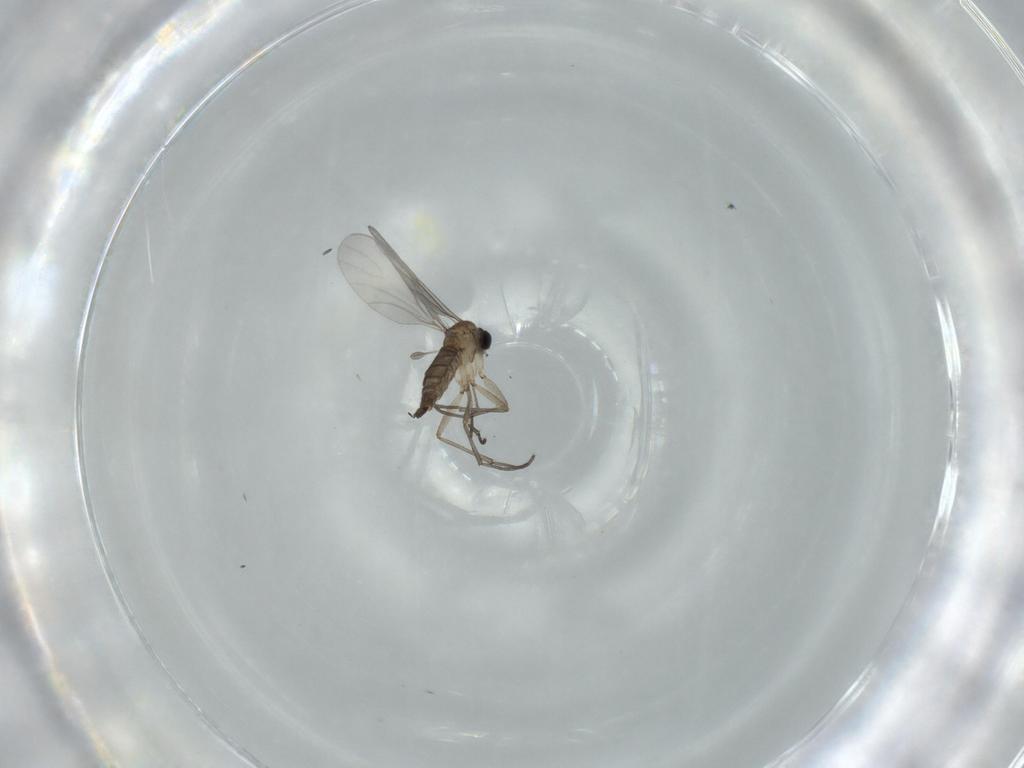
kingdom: Animalia
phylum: Arthropoda
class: Insecta
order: Diptera
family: Sciaridae
